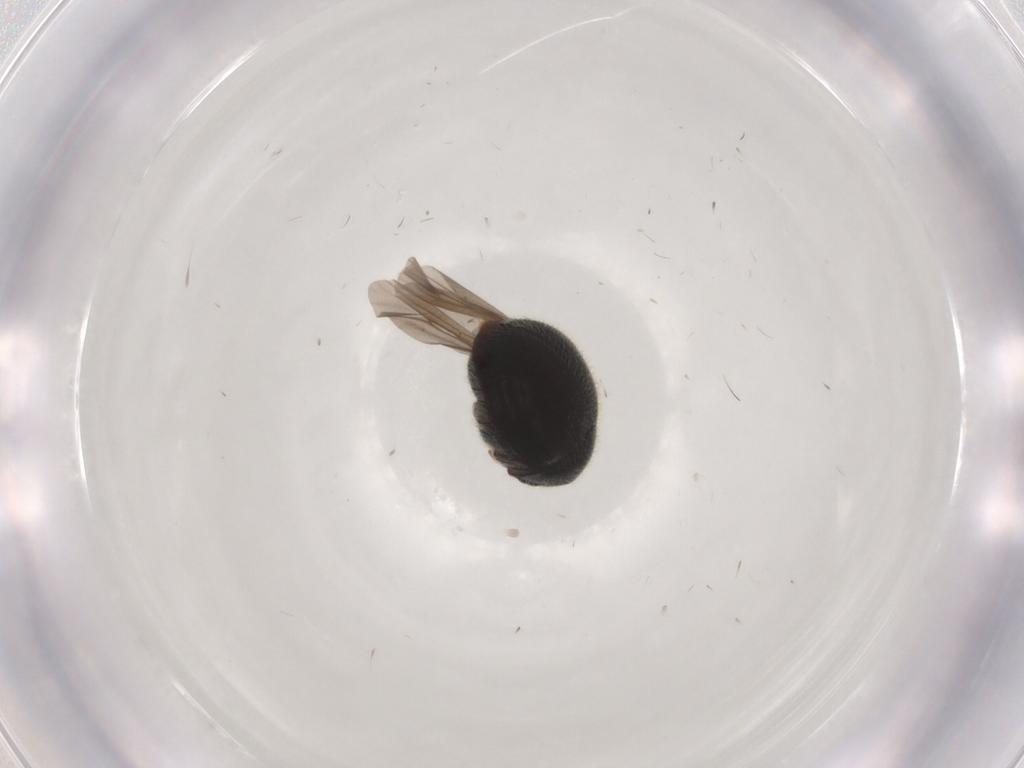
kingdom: Animalia
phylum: Arthropoda
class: Insecta
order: Coleoptera
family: Ptinidae
